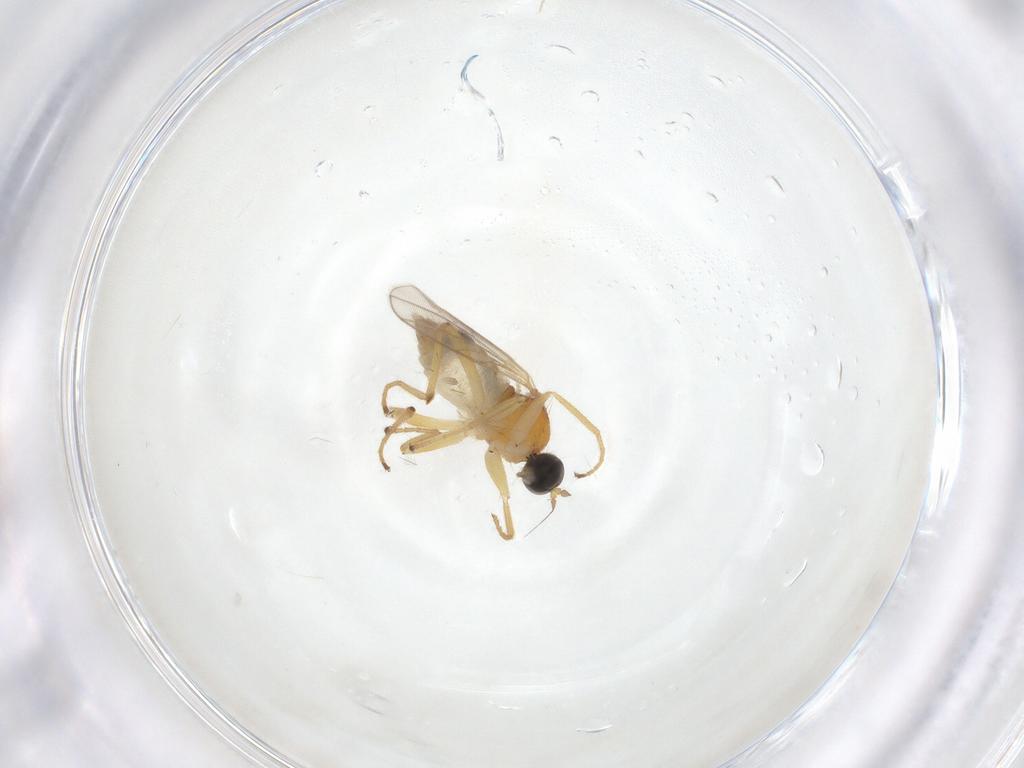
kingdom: Animalia
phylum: Arthropoda
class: Insecta
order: Diptera
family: Hybotidae
